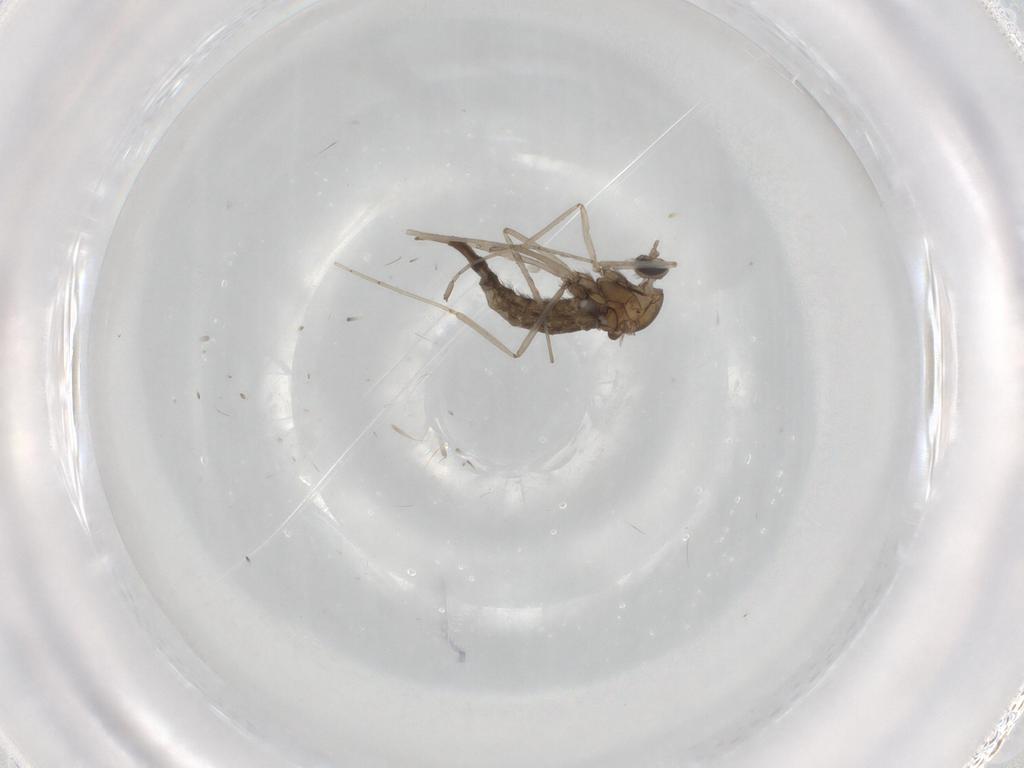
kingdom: Animalia
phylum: Arthropoda
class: Insecta
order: Diptera
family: Cecidomyiidae
